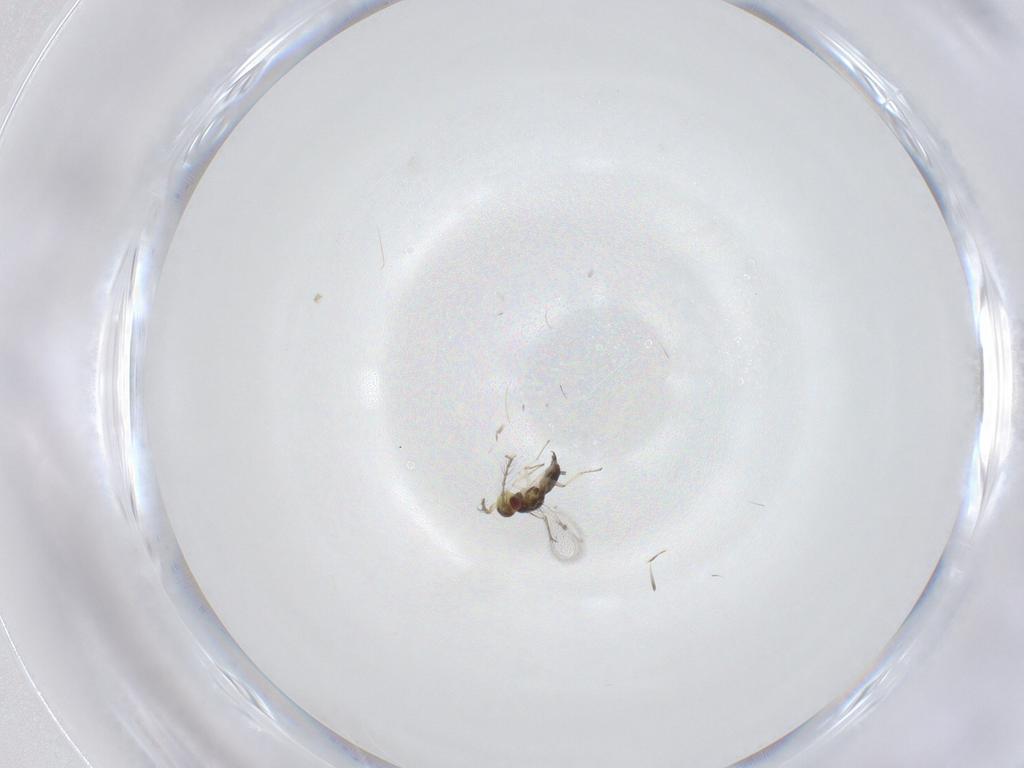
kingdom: Animalia
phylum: Arthropoda
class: Insecta
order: Hymenoptera
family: Eulophidae
